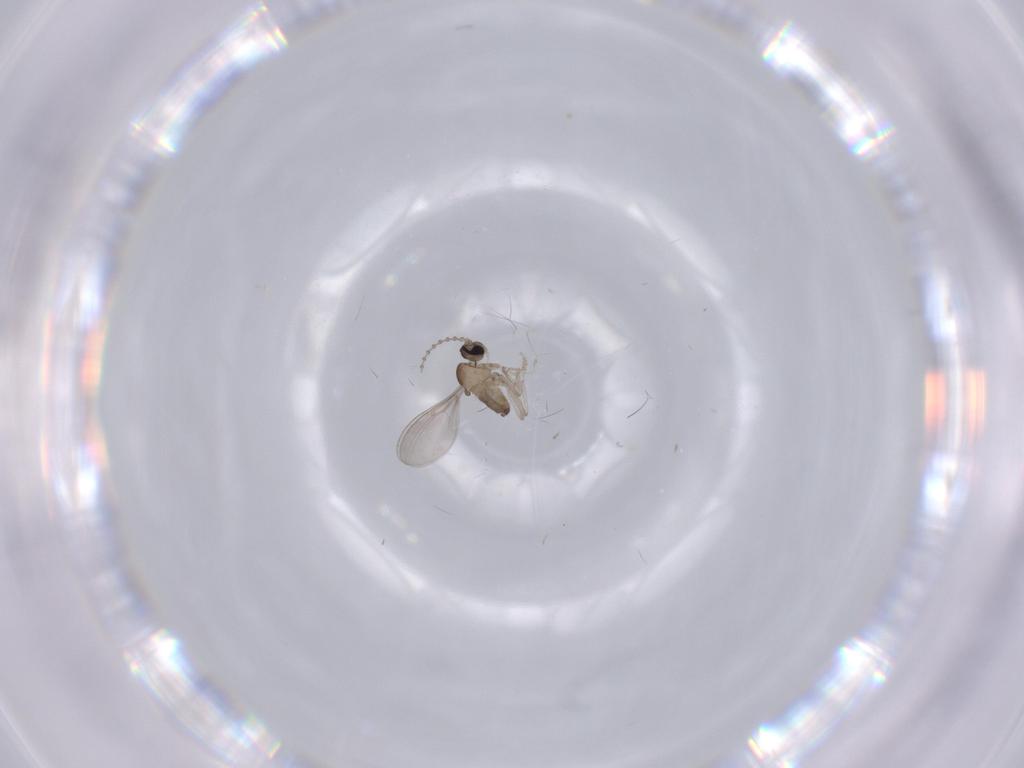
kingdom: Animalia
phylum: Arthropoda
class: Insecta
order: Diptera
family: Cecidomyiidae
